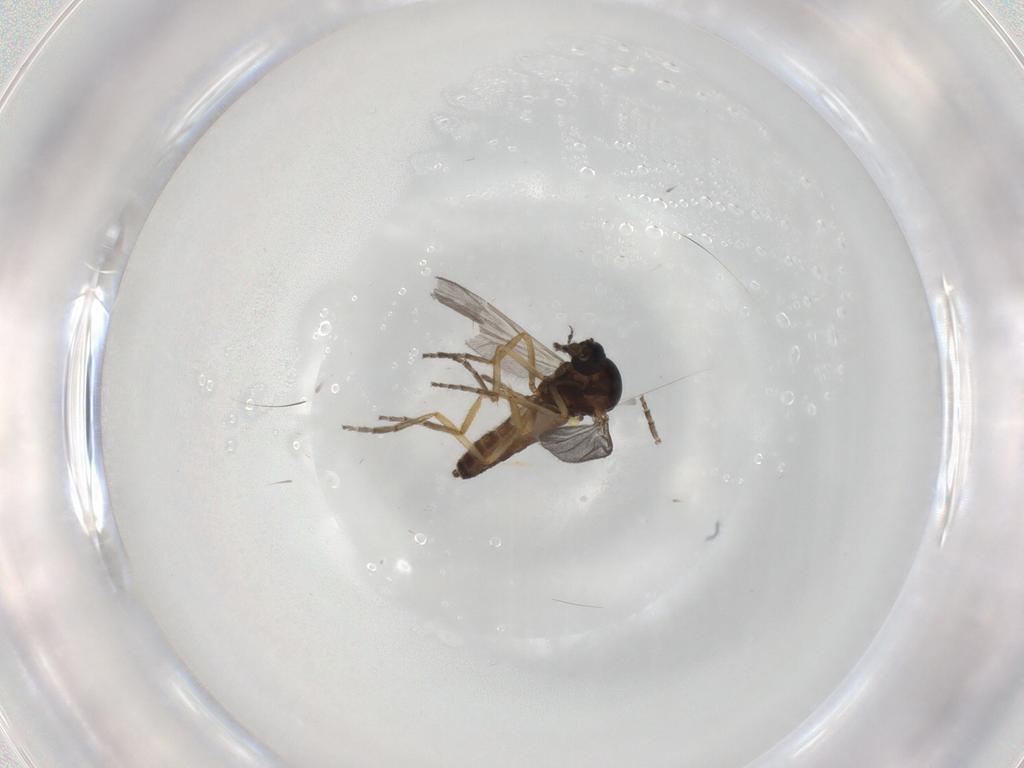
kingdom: Animalia
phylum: Arthropoda
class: Insecta
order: Diptera
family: Ceratopogonidae
